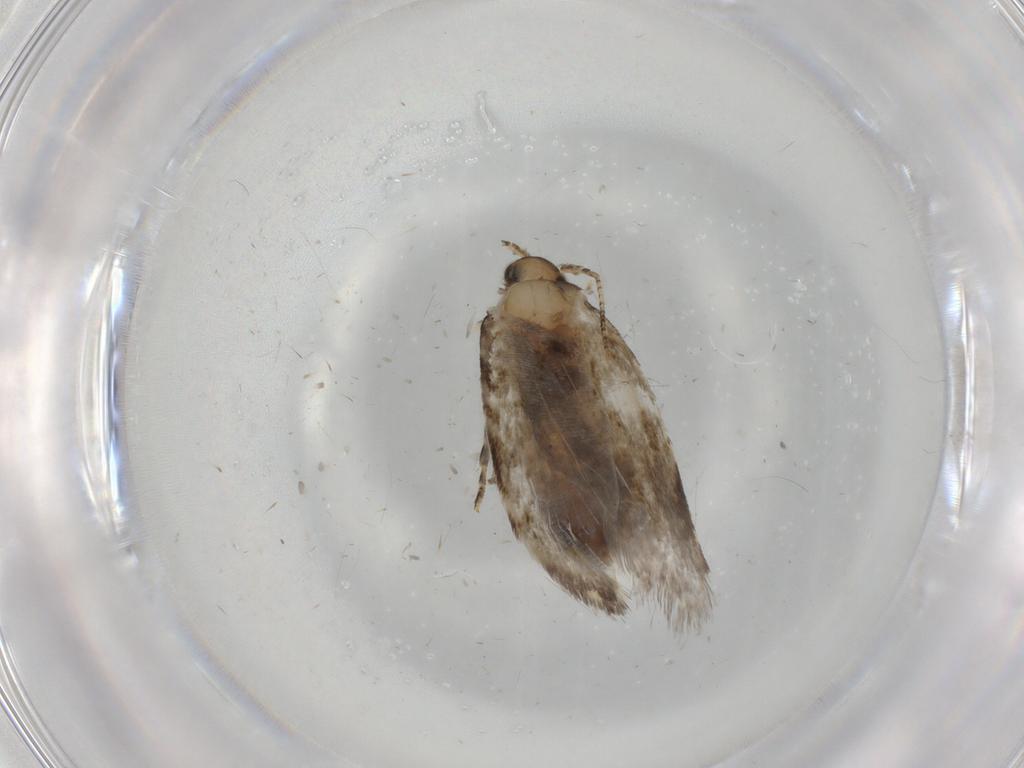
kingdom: Animalia
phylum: Arthropoda
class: Insecta
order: Lepidoptera
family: Tineidae
